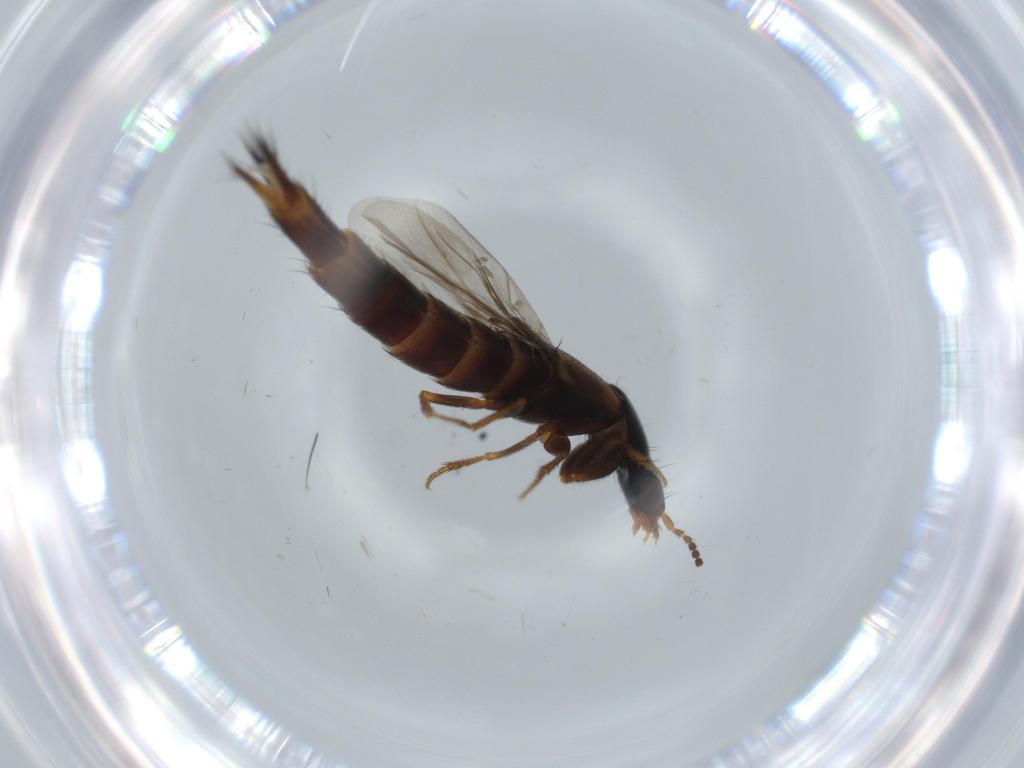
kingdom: Animalia
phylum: Arthropoda
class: Insecta
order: Coleoptera
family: Staphylinidae
